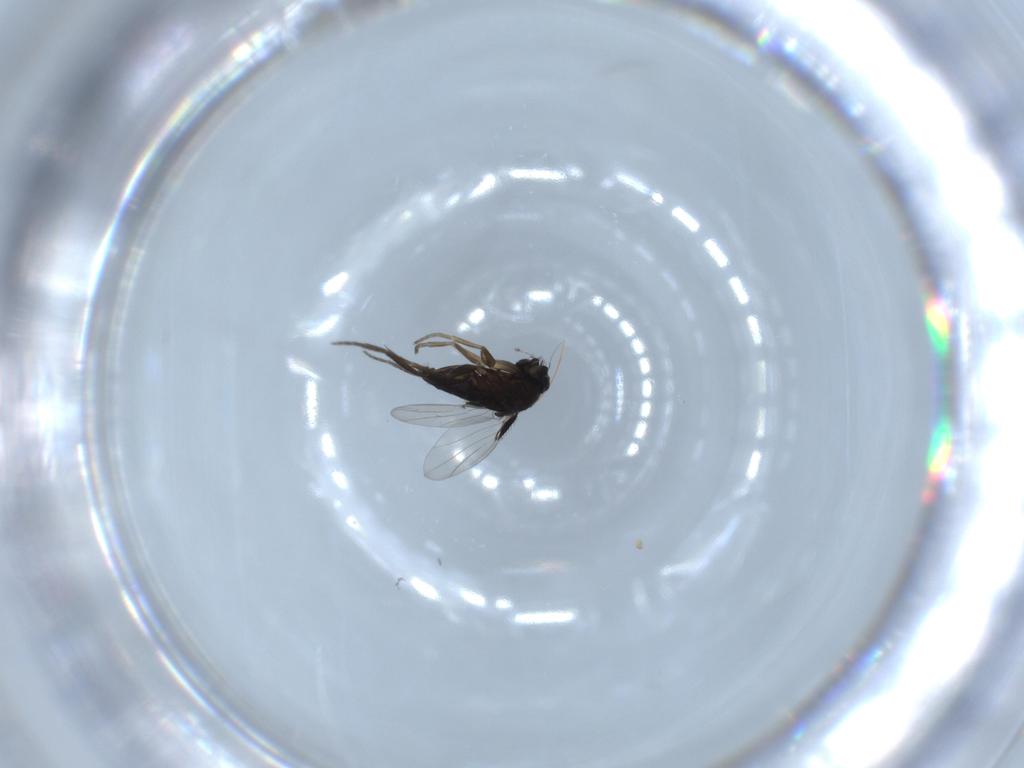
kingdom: Animalia
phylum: Arthropoda
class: Insecta
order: Diptera
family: Phoridae
